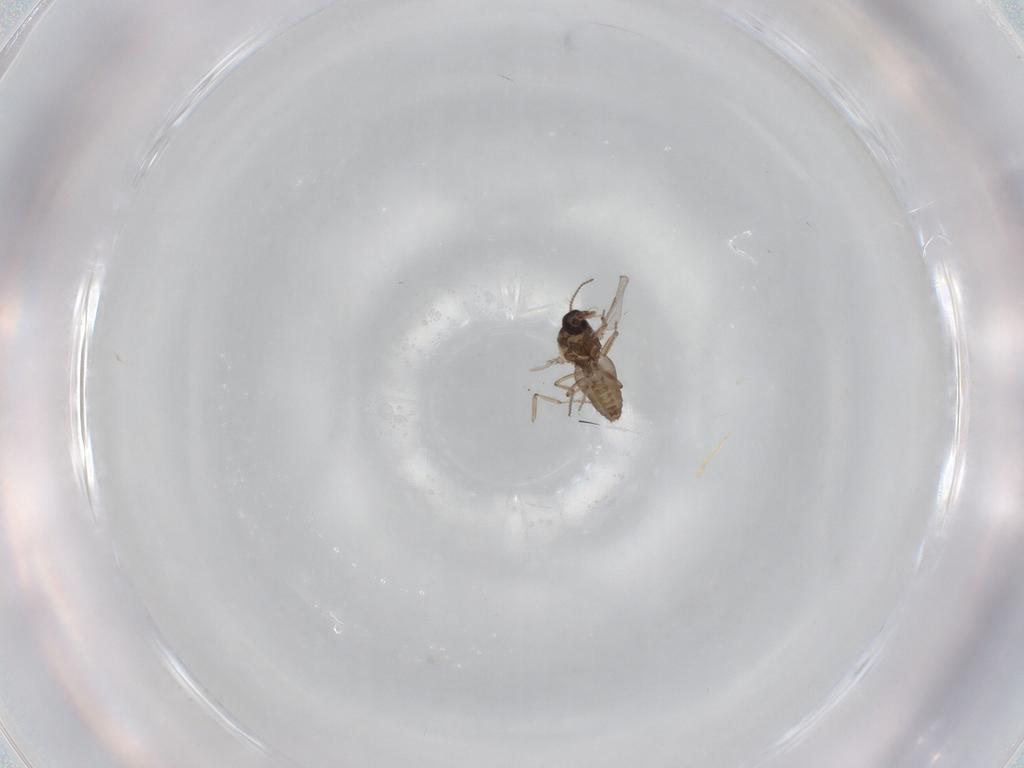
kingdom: Animalia
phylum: Arthropoda
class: Insecta
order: Diptera
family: Ceratopogonidae
